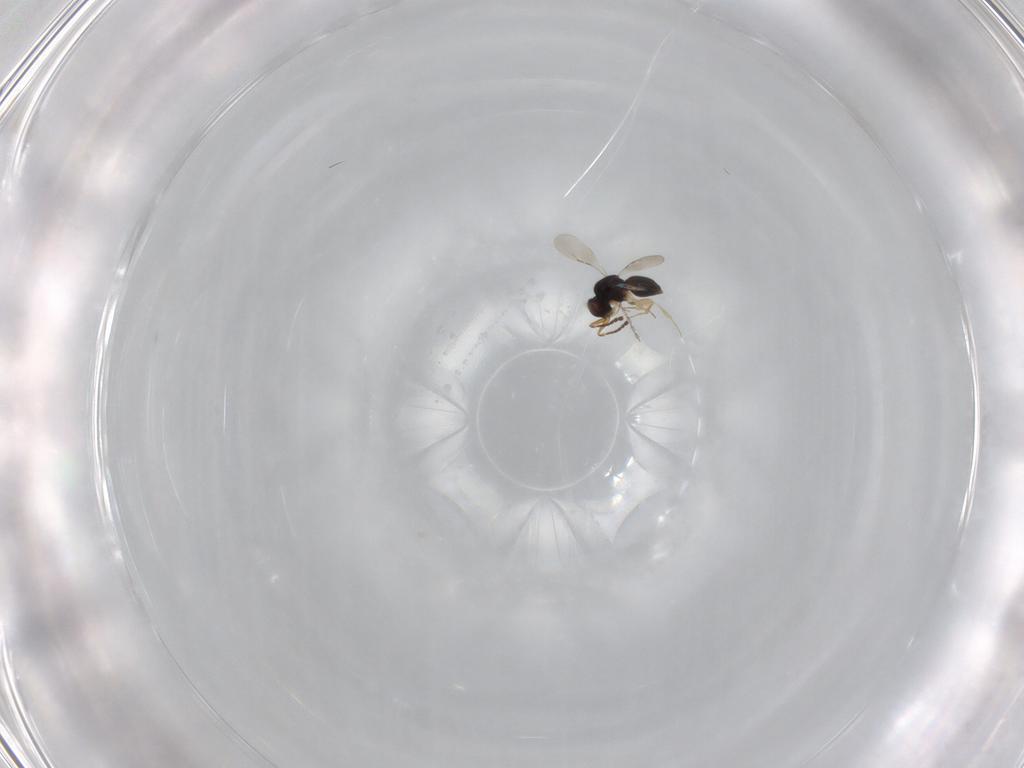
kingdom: Animalia
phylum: Arthropoda
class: Insecta
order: Hymenoptera
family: Ceraphronidae
